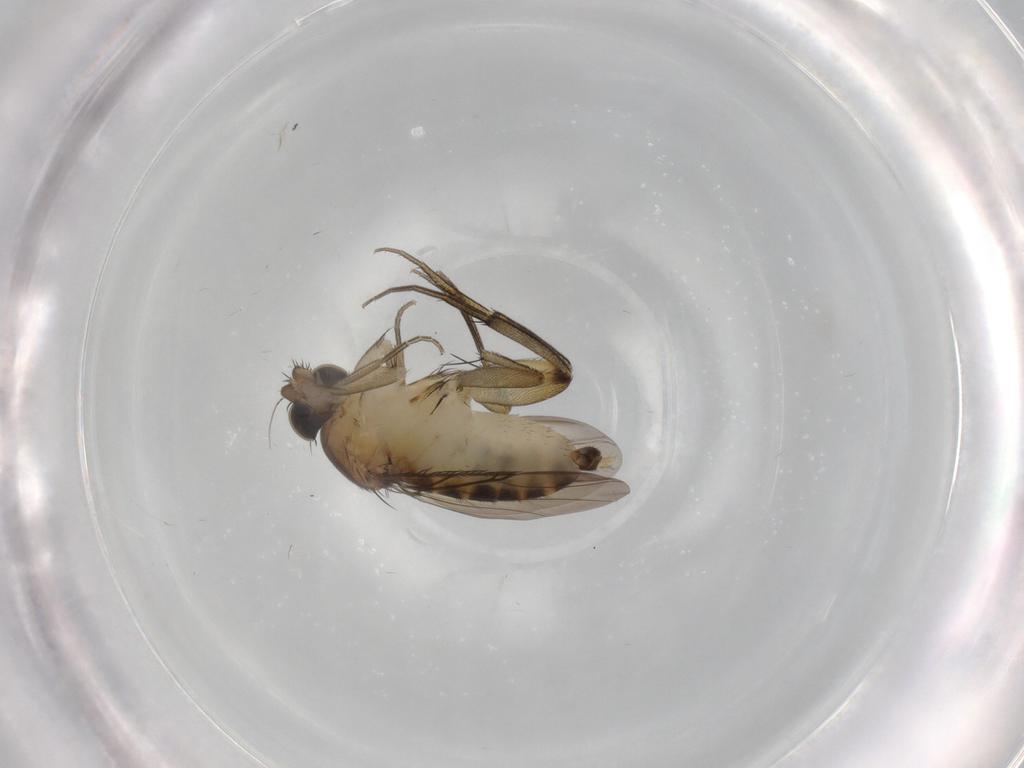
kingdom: Animalia
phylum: Arthropoda
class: Insecta
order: Diptera
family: Phoridae
